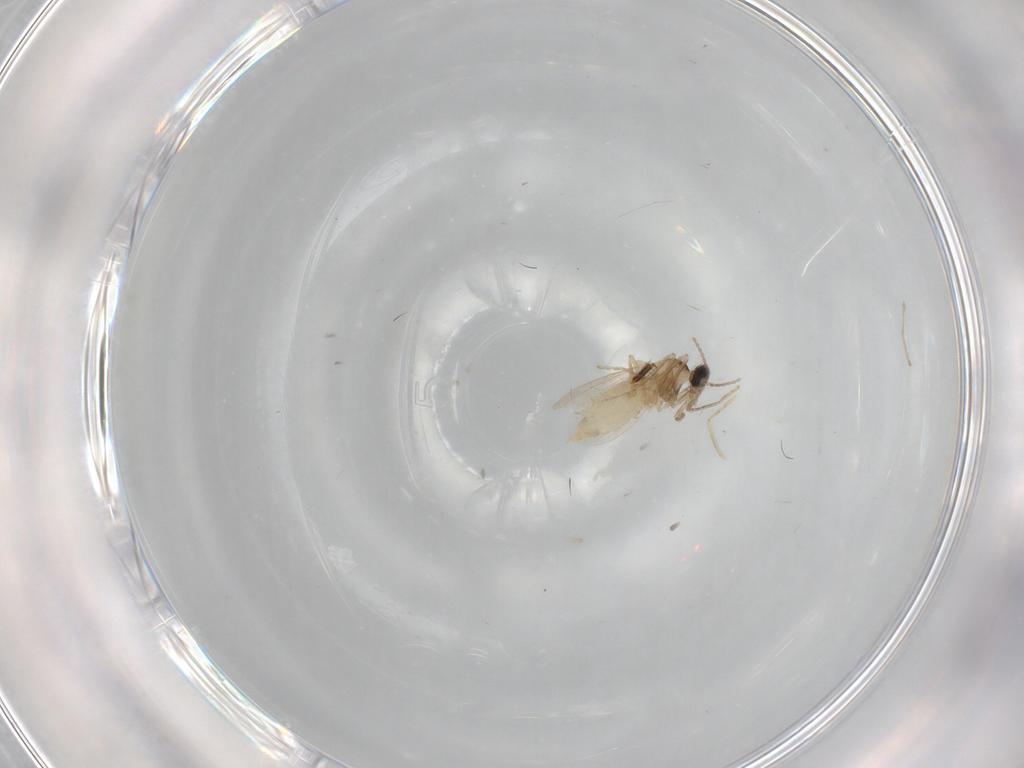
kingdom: Animalia
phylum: Arthropoda
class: Insecta
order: Diptera
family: Cecidomyiidae
